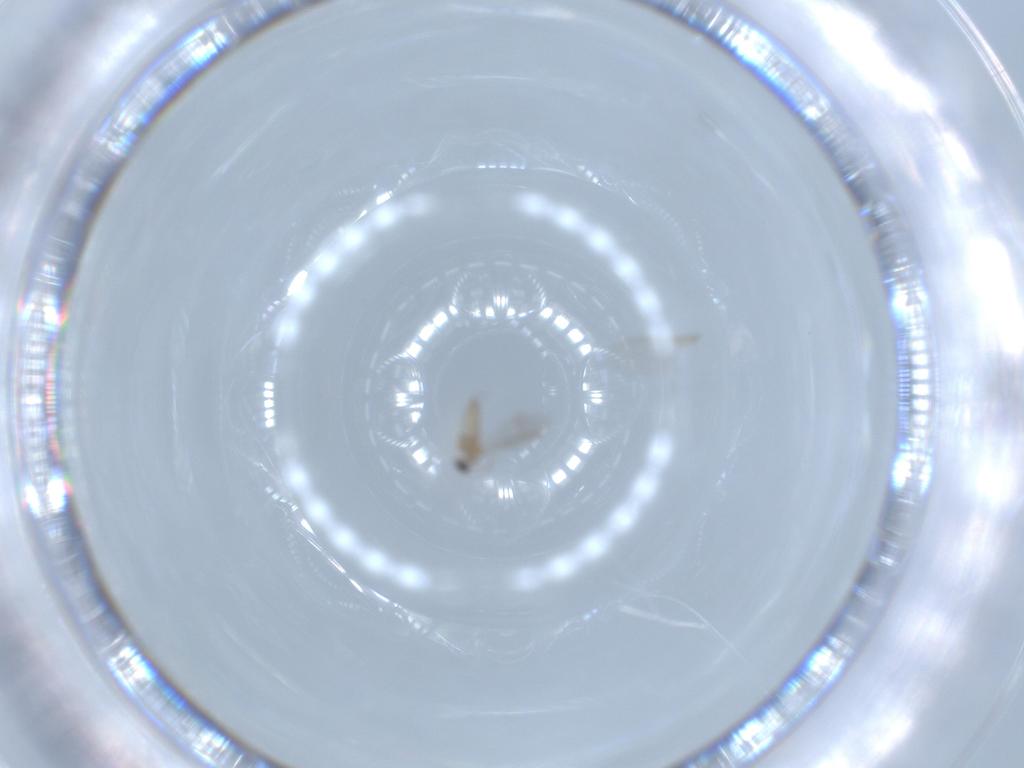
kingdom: Animalia
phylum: Arthropoda
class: Insecta
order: Diptera
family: Cecidomyiidae
